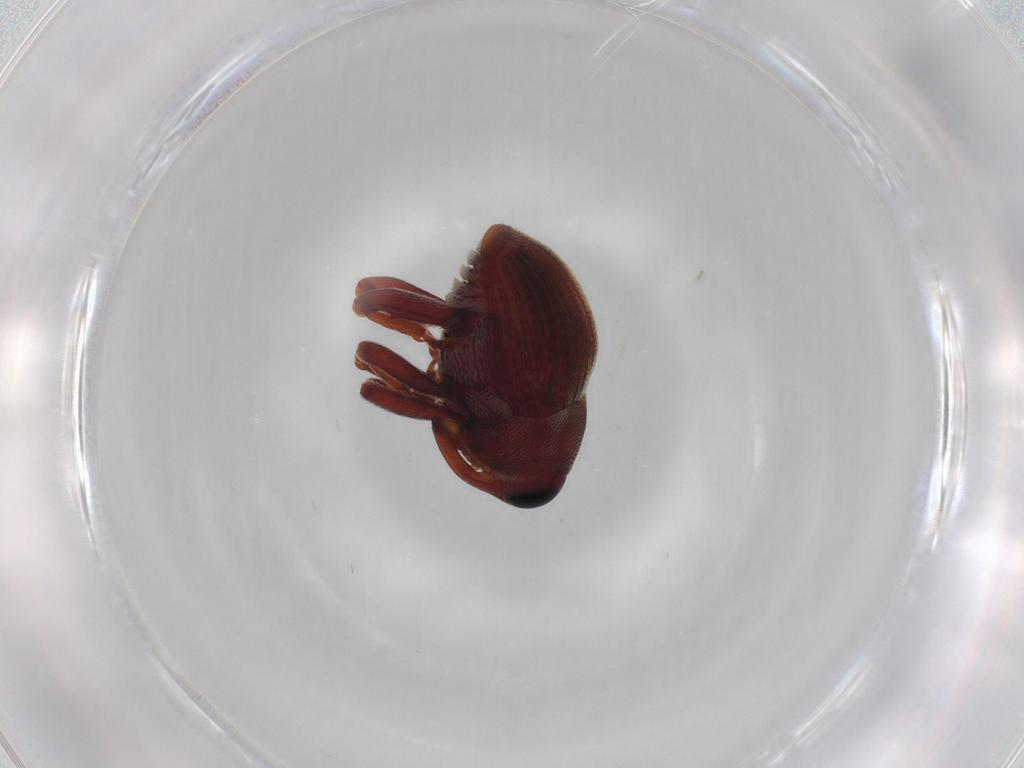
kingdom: Animalia
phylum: Arthropoda
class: Insecta
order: Coleoptera
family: Curculionidae
